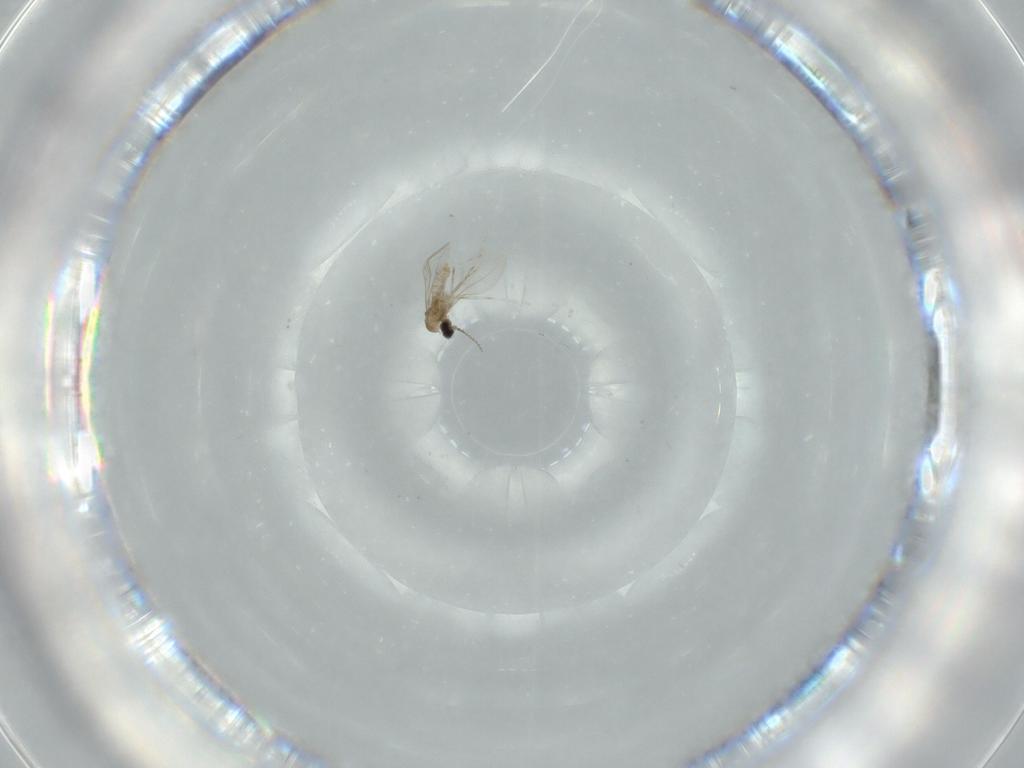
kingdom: Animalia
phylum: Arthropoda
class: Insecta
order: Diptera
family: Cecidomyiidae
